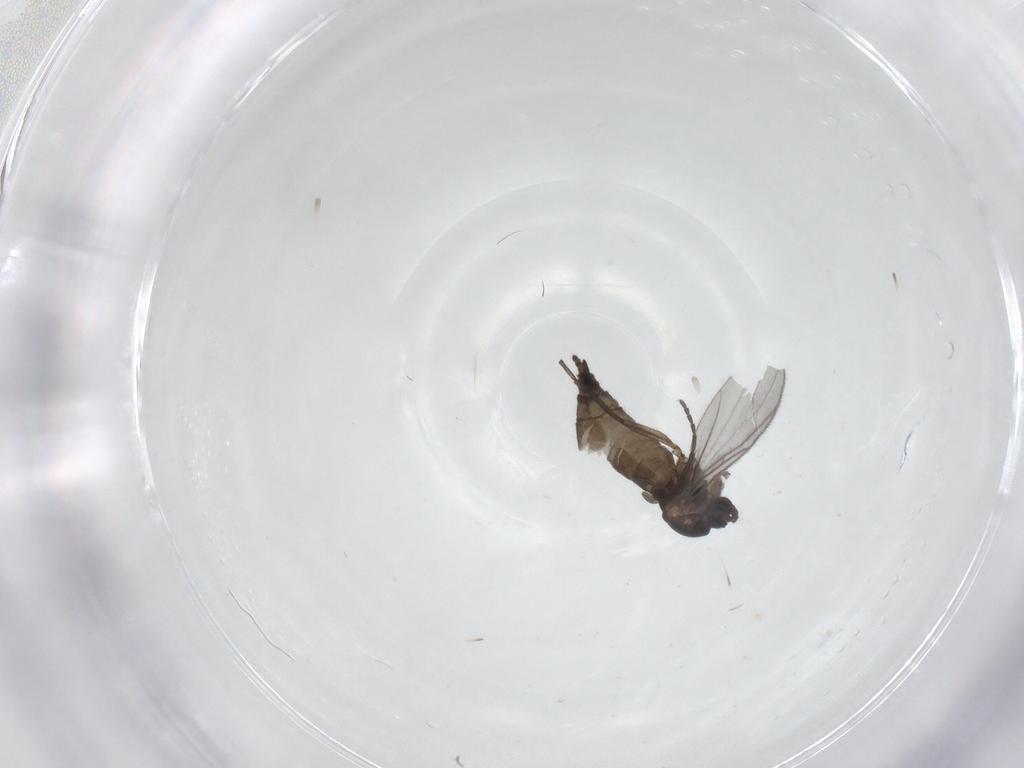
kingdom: Animalia
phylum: Arthropoda
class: Insecta
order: Diptera
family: Sciaridae
